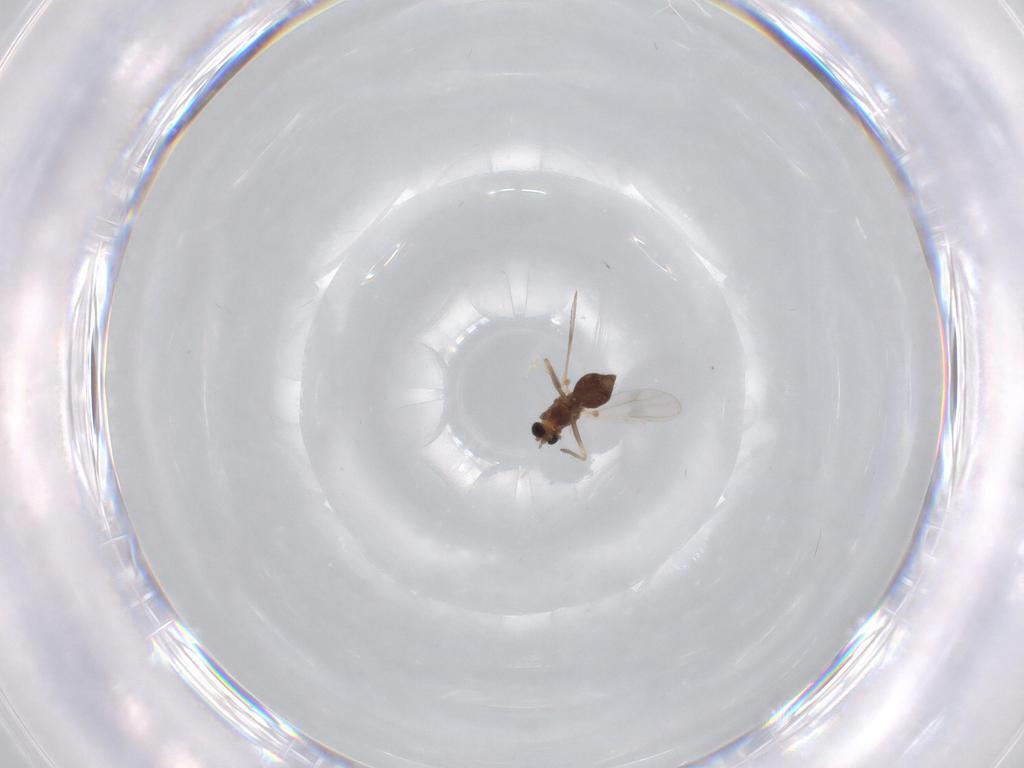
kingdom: Animalia
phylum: Arthropoda
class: Insecta
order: Diptera
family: Chironomidae
